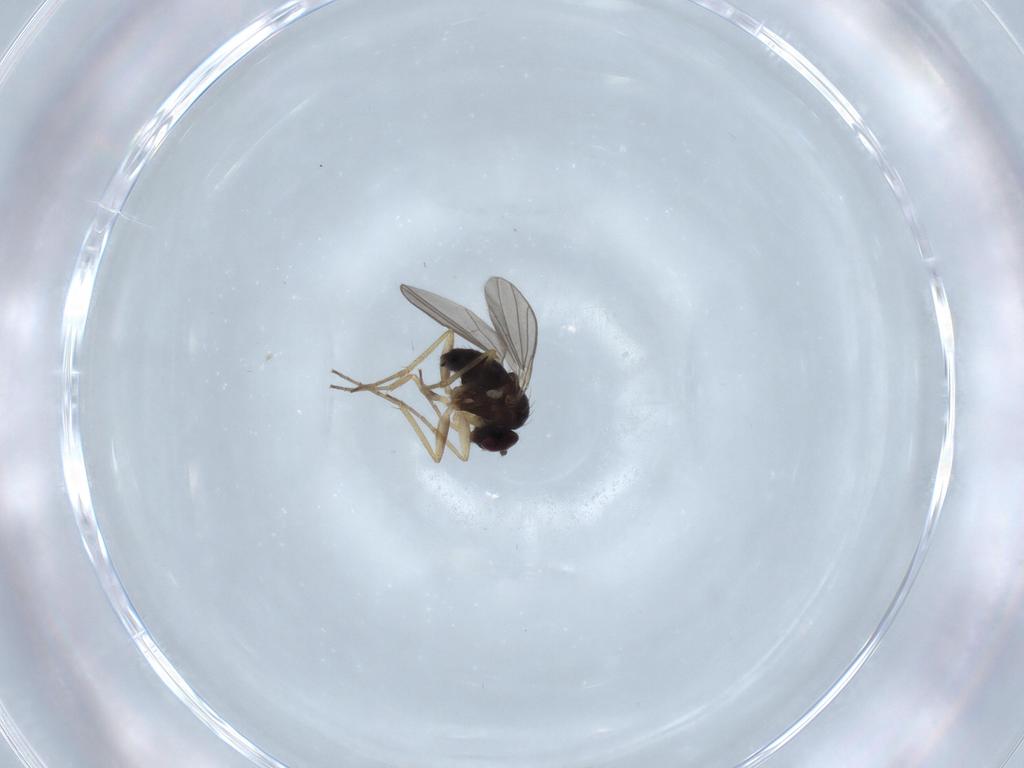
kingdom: Animalia
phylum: Arthropoda
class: Insecta
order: Diptera
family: Dolichopodidae
